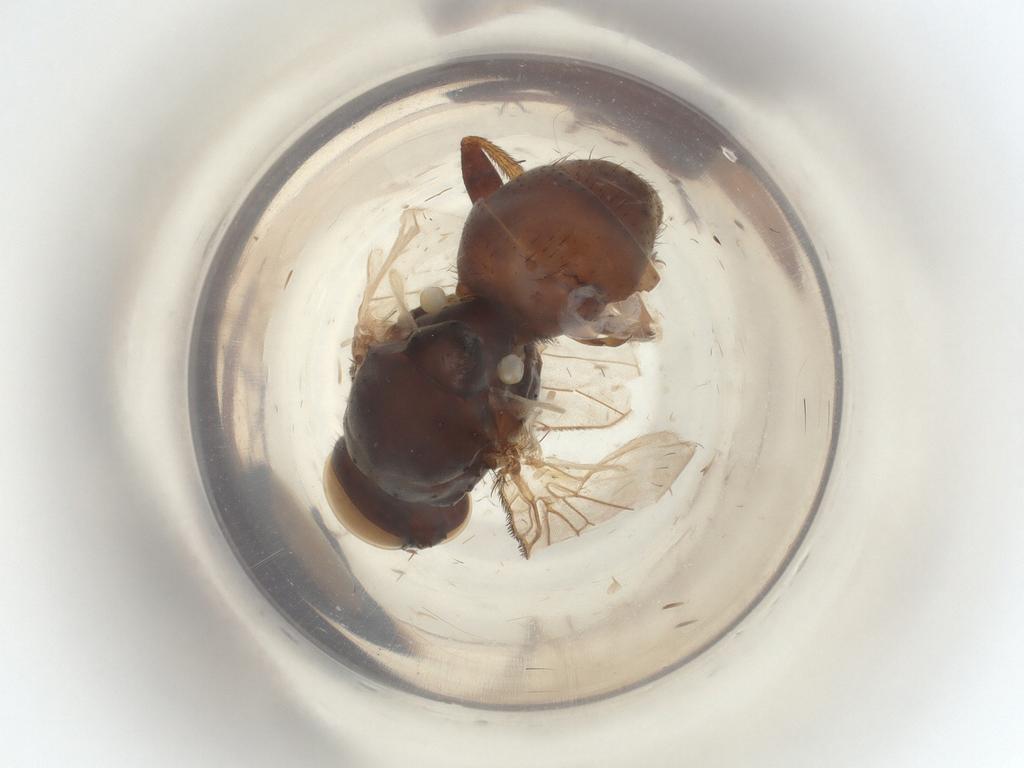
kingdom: Animalia
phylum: Arthropoda
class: Insecta
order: Diptera
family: Muscidae
